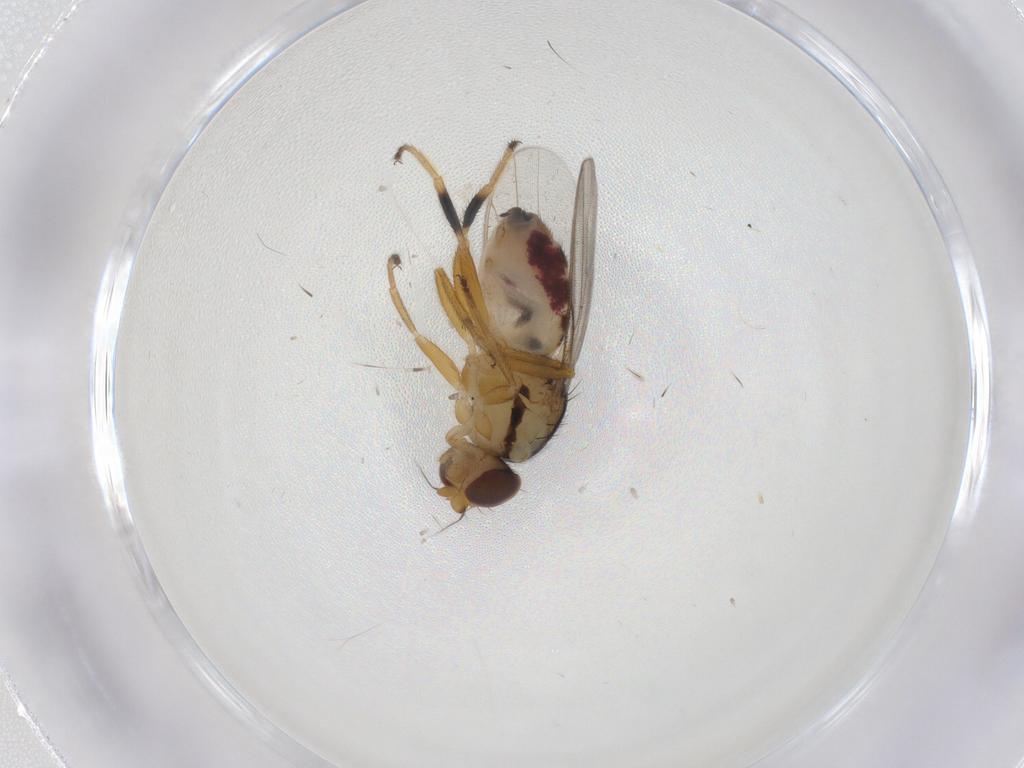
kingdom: Animalia
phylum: Arthropoda
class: Insecta
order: Diptera
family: Chloropidae
